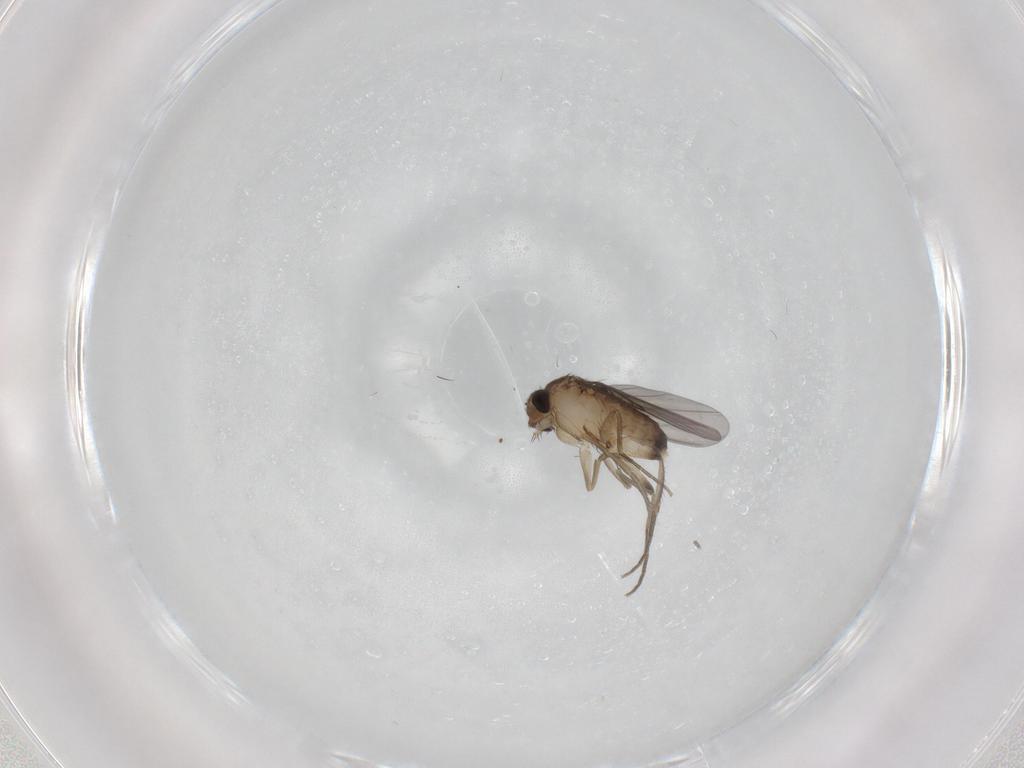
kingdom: Animalia
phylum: Arthropoda
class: Insecta
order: Diptera
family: Phoridae
